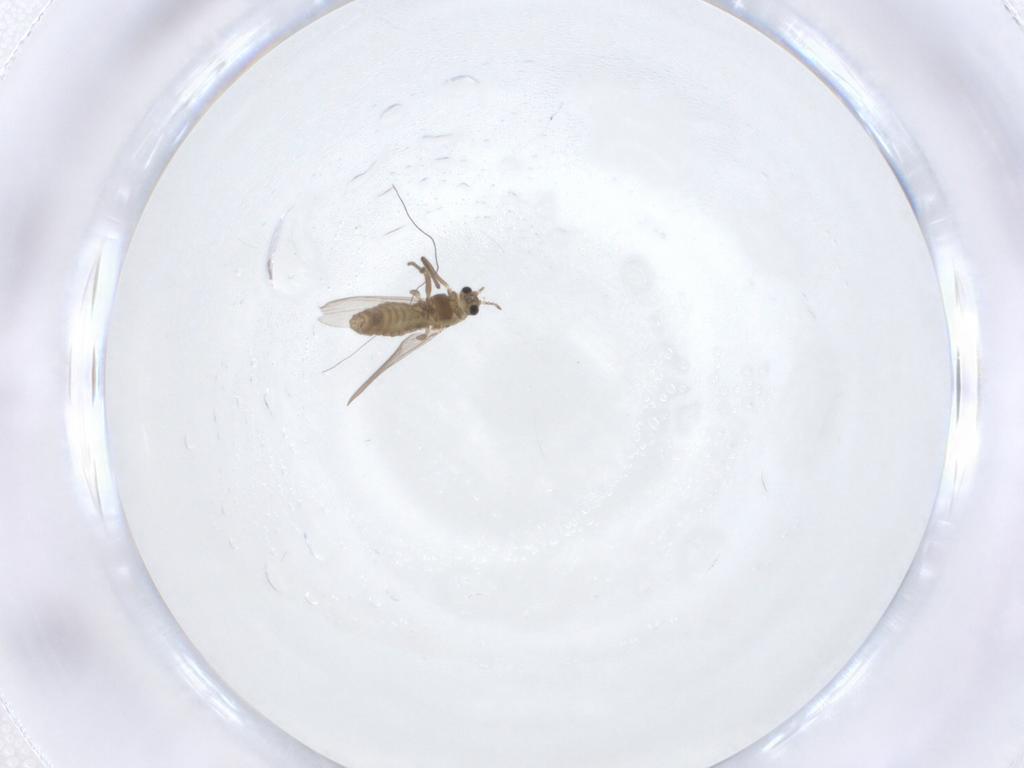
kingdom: Animalia
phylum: Arthropoda
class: Insecta
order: Diptera
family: Chironomidae
